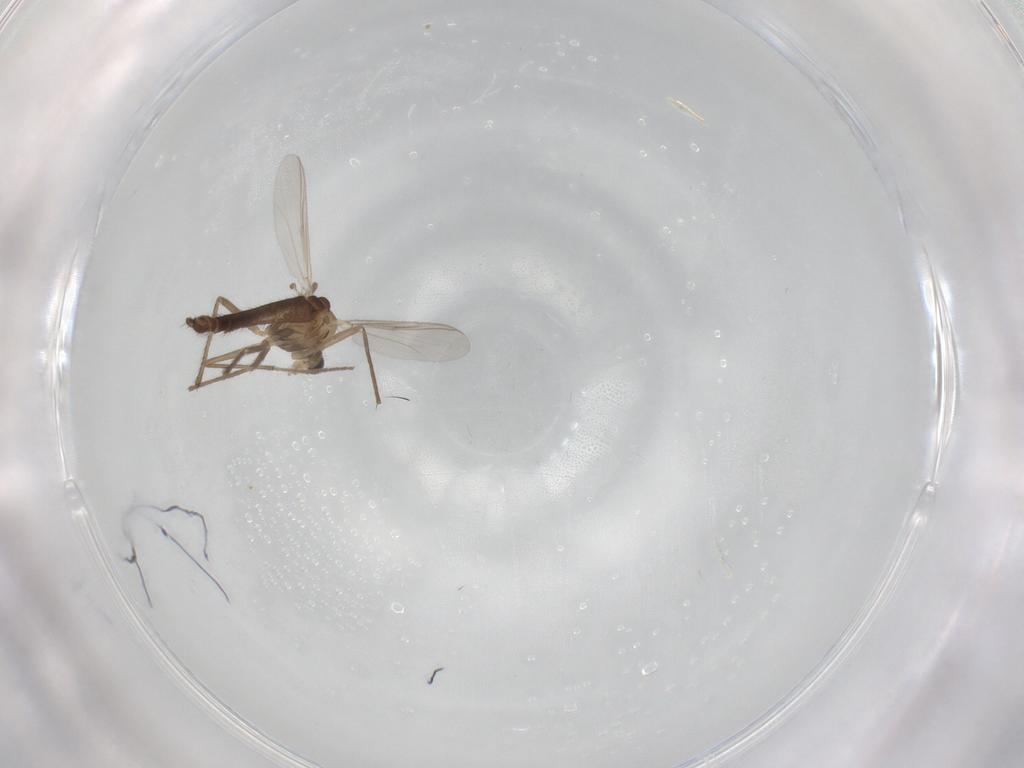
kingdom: Animalia
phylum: Arthropoda
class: Insecta
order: Diptera
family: Chironomidae
